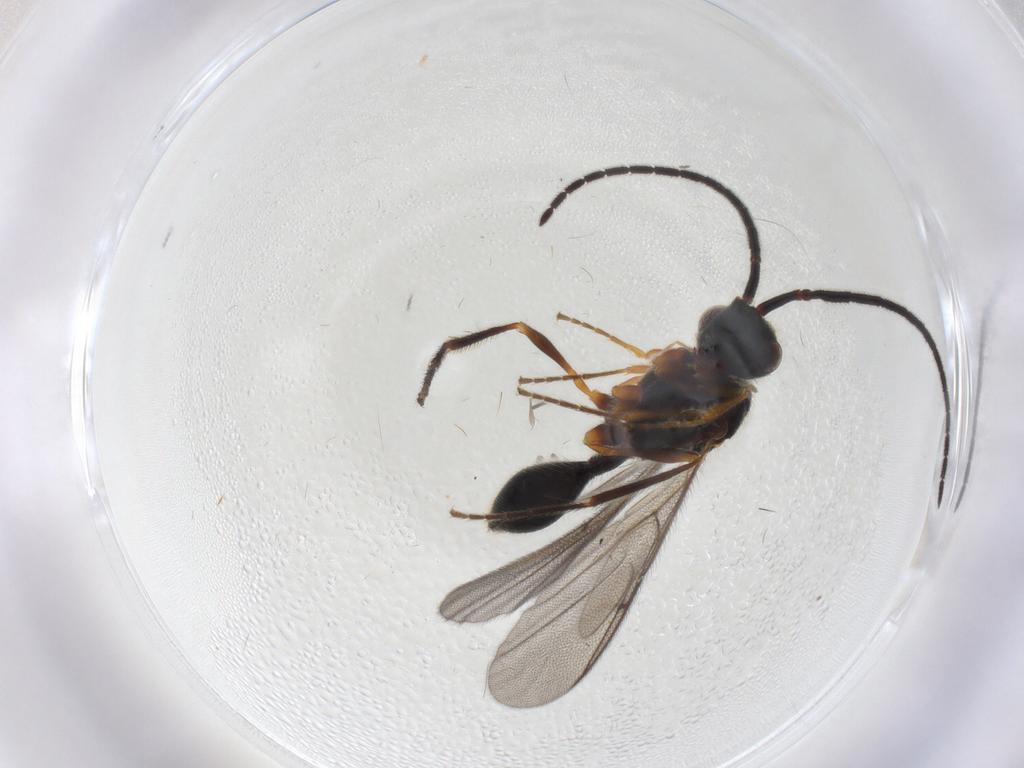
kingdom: Animalia
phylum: Arthropoda
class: Insecta
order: Hymenoptera
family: Diapriidae
